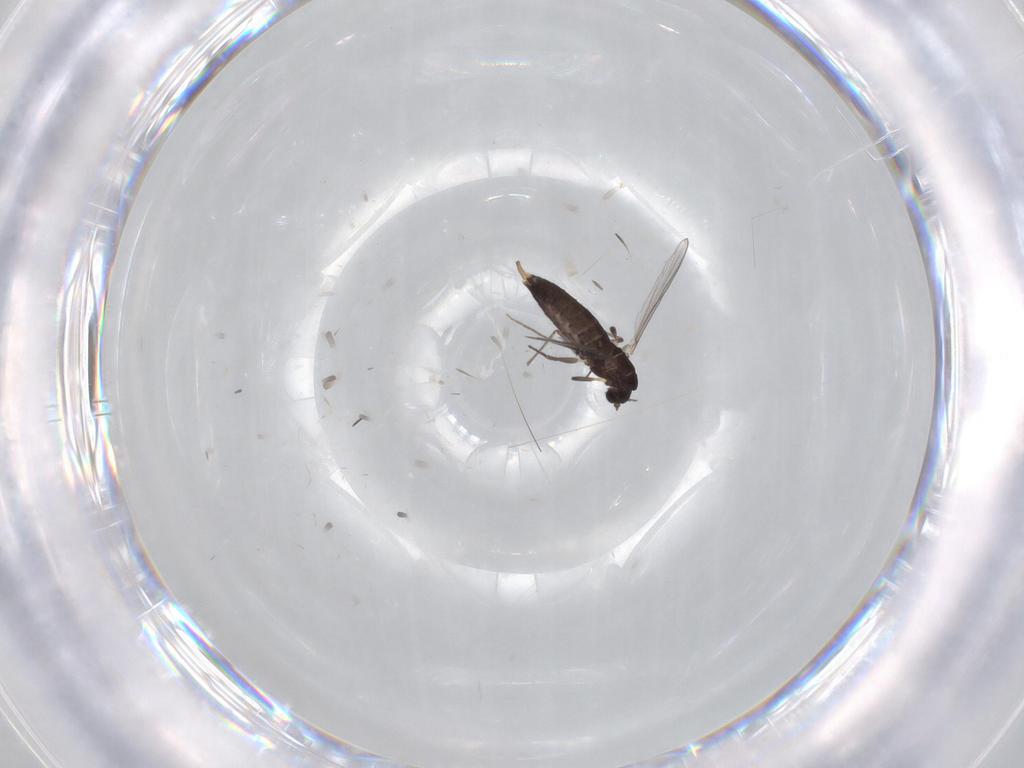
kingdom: Animalia
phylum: Arthropoda
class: Insecta
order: Diptera
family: Chironomidae
